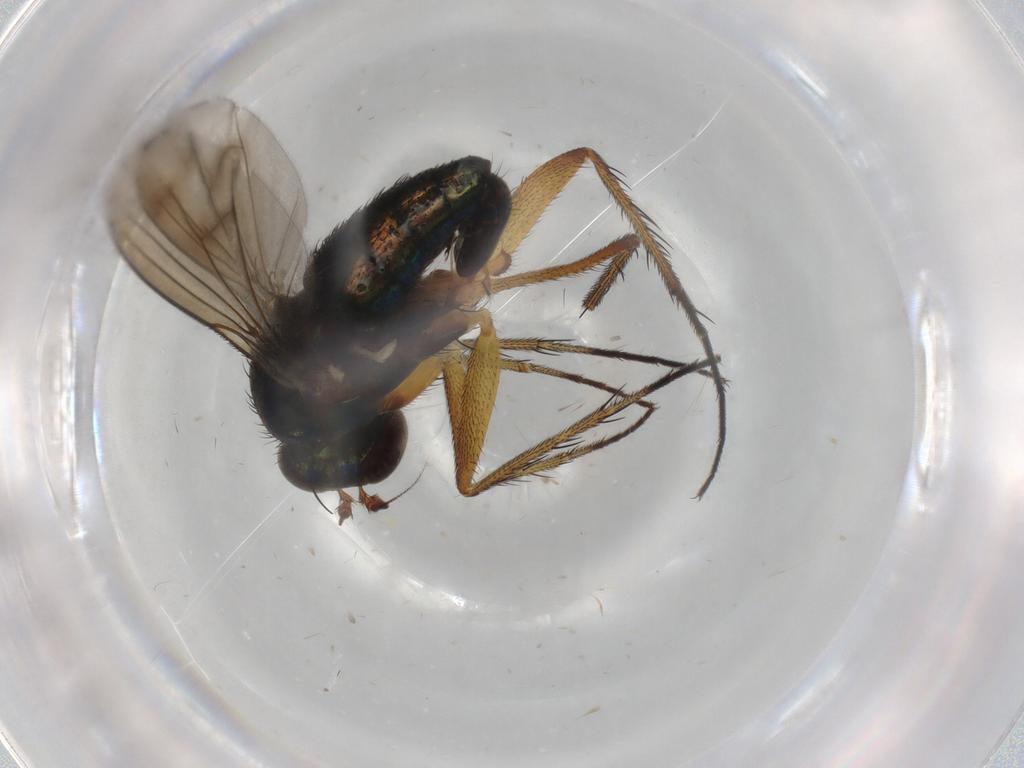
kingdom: Animalia
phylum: Arthropoda
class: Insecta
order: Diptera
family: Dolichopodidae
